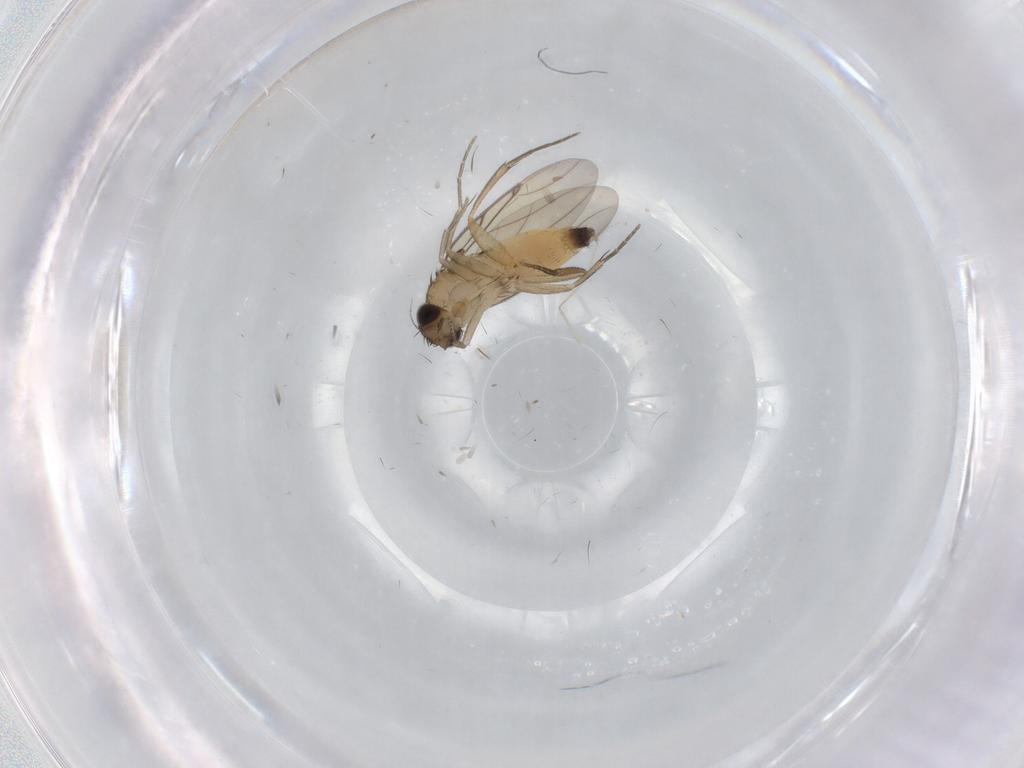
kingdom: Animalia
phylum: Arthropoda
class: Insecta
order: Diptera
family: Cecidomyiidae
